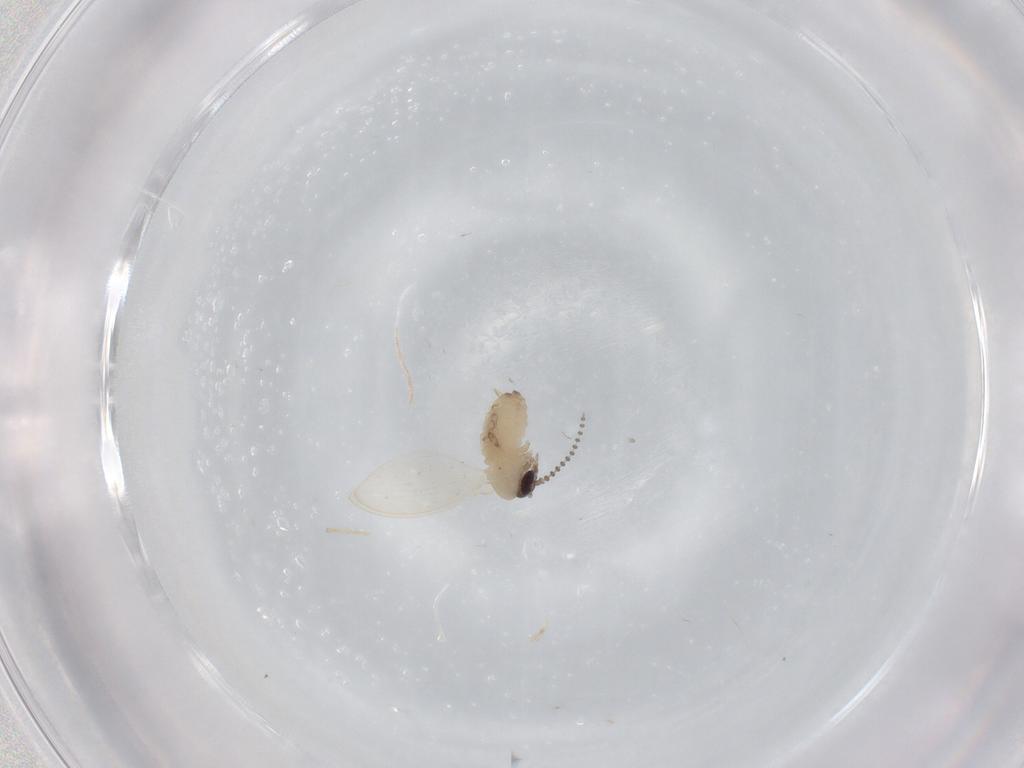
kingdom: Animalia
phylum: Arthropoda
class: Insecta
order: Diptera
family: Psychodidae
